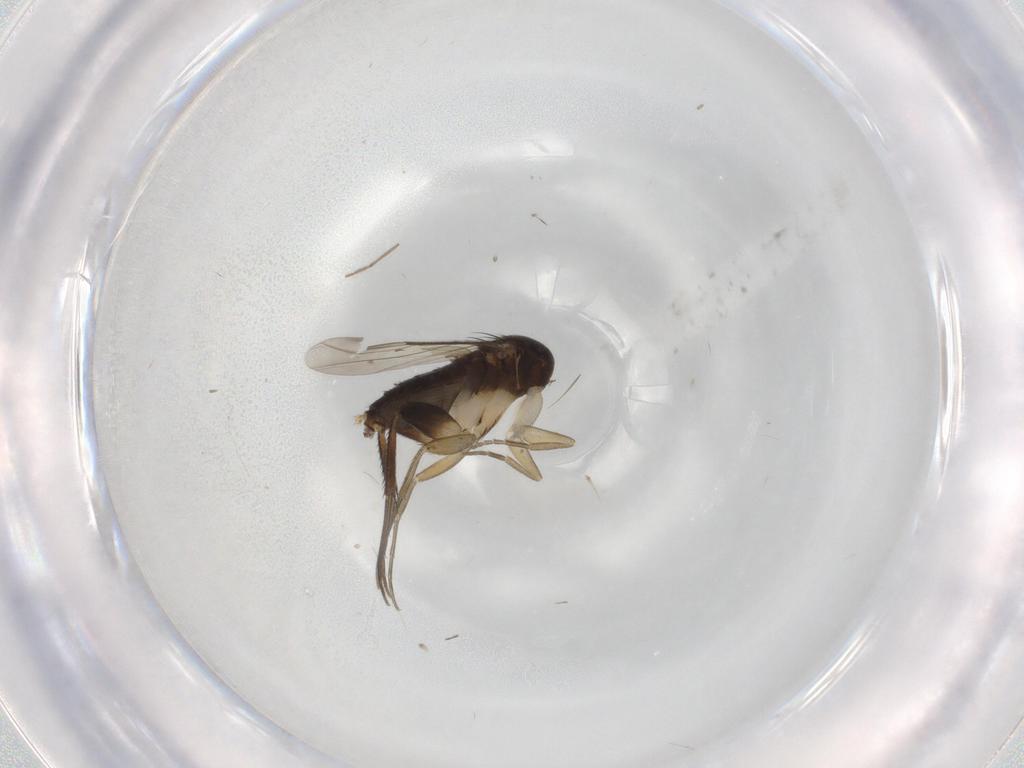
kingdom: Animalia
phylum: Arthropoda
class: Insecta
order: Diptera
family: Phoridae
